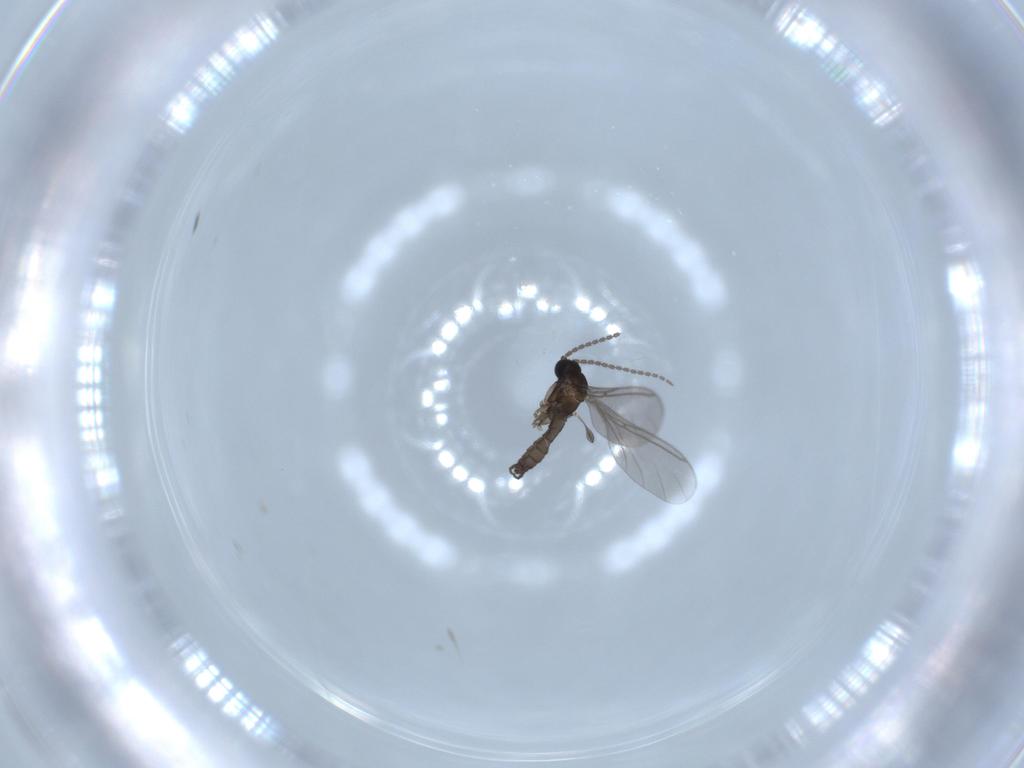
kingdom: Animalia
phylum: Arthropoda
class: Insecta
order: Diptera
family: Sciaridae
